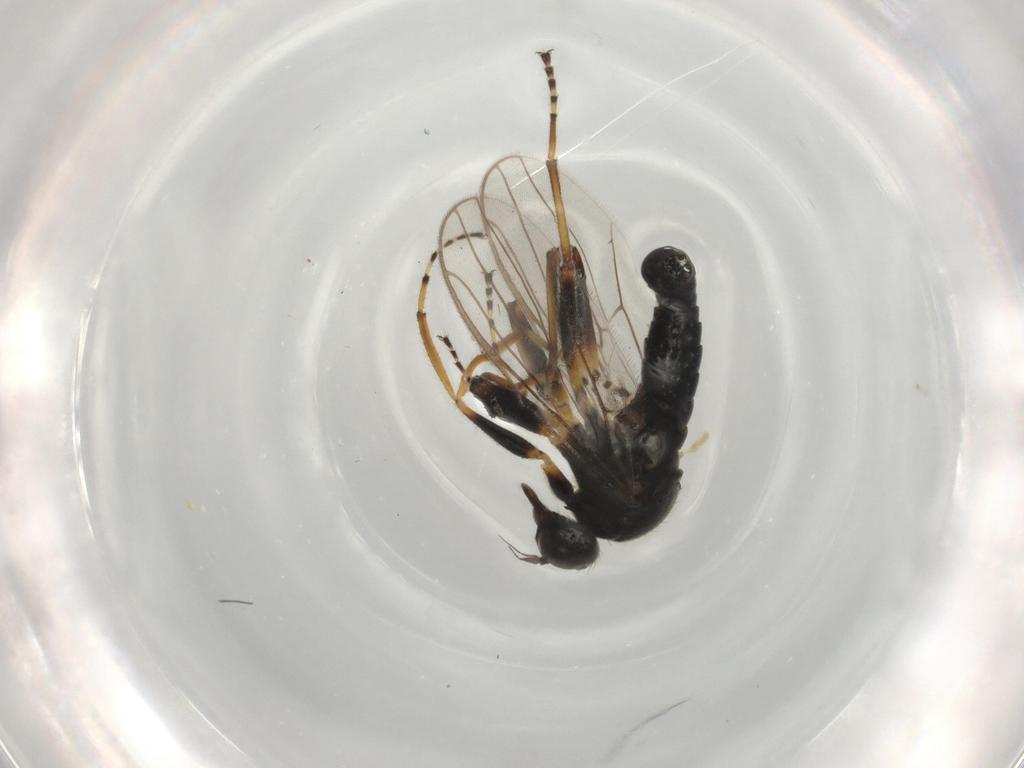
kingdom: Animalia
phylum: Arthropoda
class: Insecta
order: Diptera
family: Hybotidae
